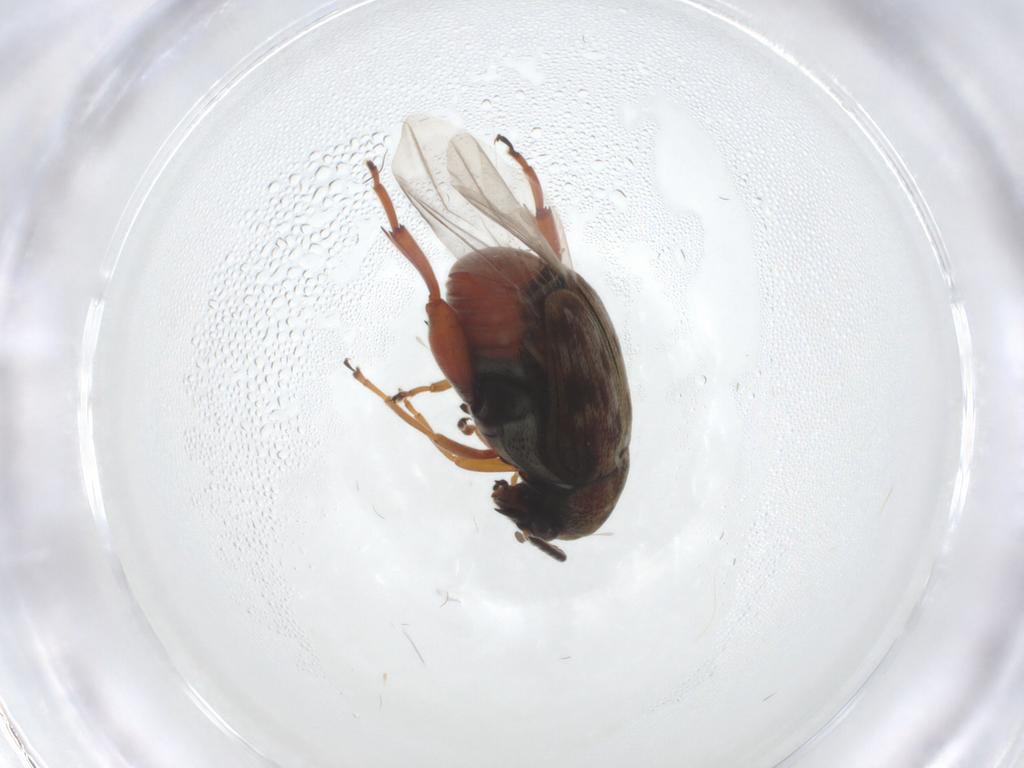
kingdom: Animalia
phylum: Arthropoda
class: Insecta
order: Coleoptera
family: Chrysomelidae
